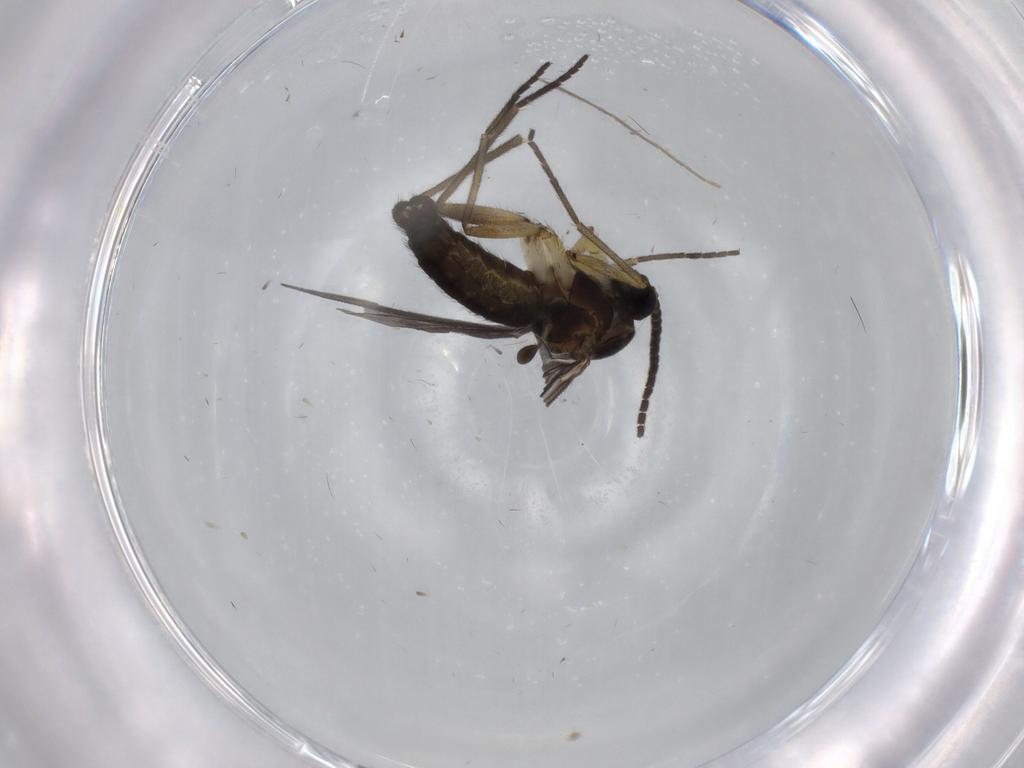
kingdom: Animalia
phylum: Arthropoda
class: Insecta
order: Diptera
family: Sciaridae
